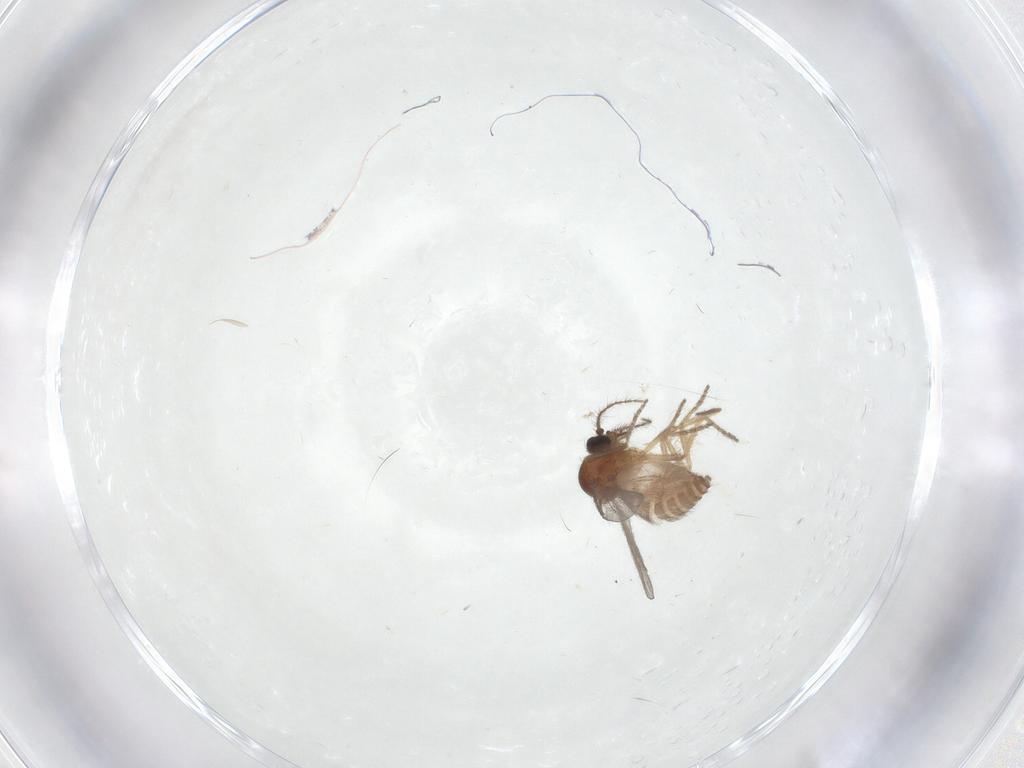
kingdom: Animalia
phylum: Arthropoda
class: Insecta
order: Diptera
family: Ceratopogonidae
